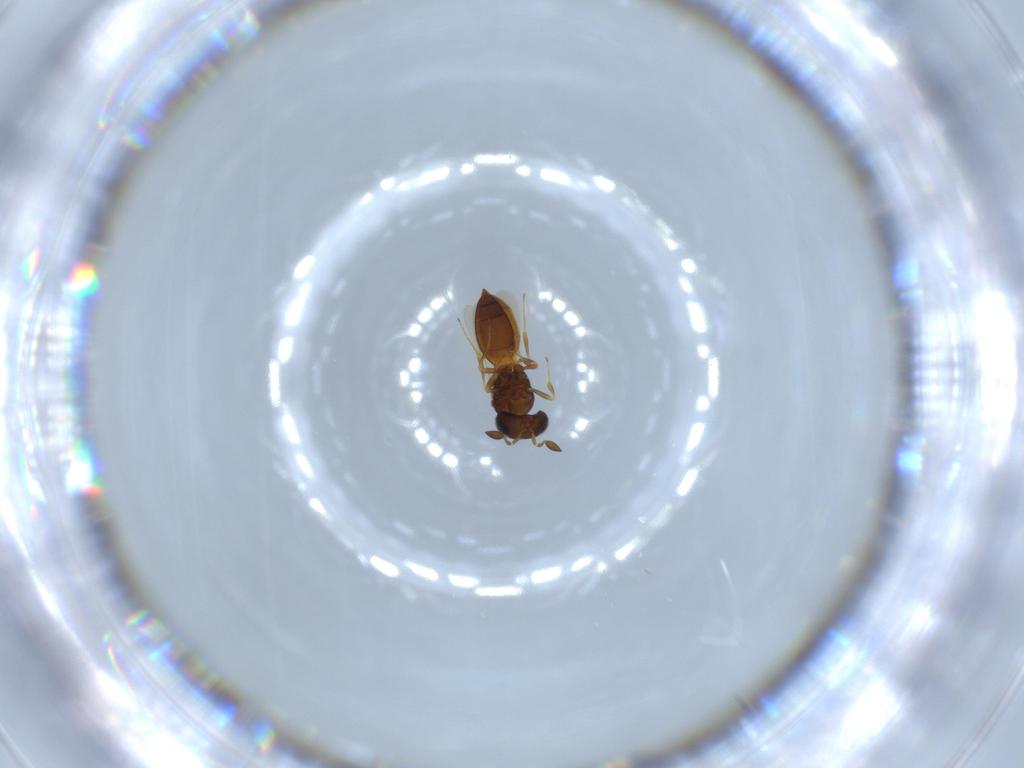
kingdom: Animalia
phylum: Arthropoda
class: Insecta
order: Hymenoptera
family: Scelionidae
